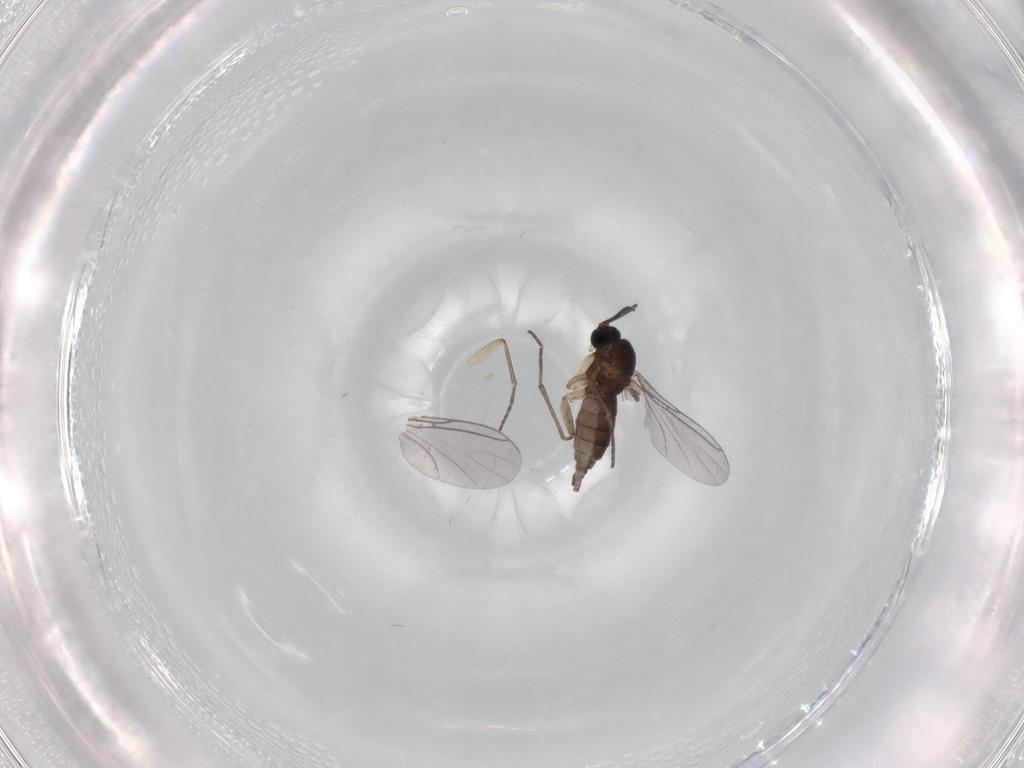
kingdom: Animalia
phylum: Arthropoda
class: Insecta
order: Diptera
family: Sciaridae
